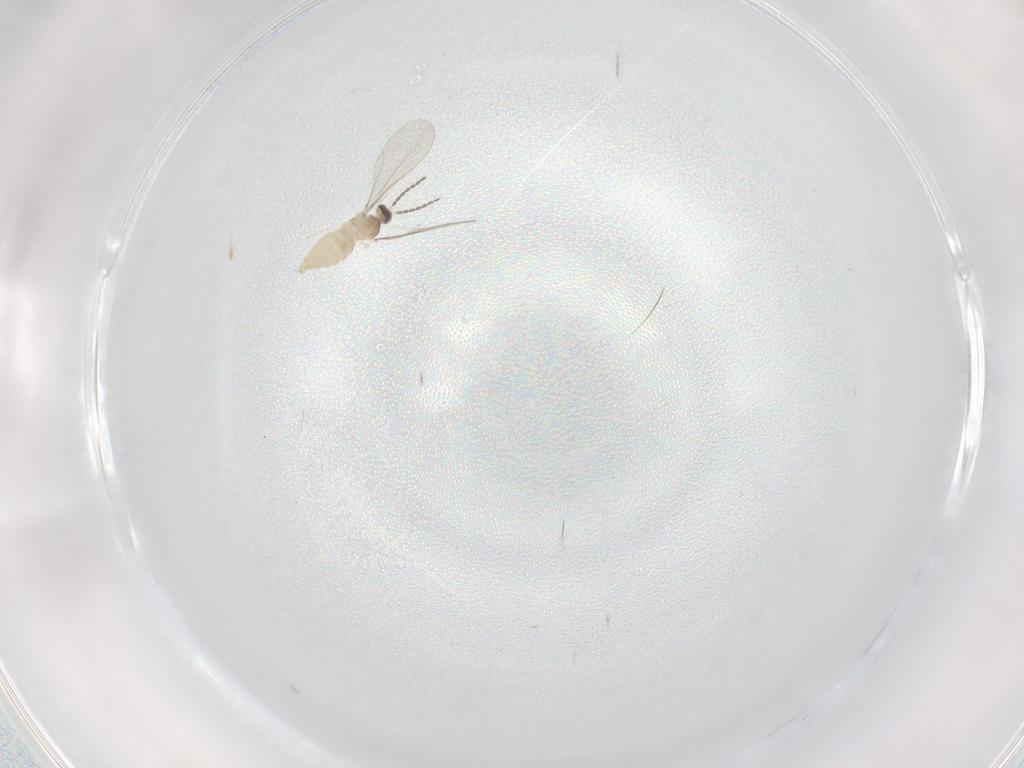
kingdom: Animalia
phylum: Arthropoda
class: Insecta
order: Diptera
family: Cecidomyiidae
